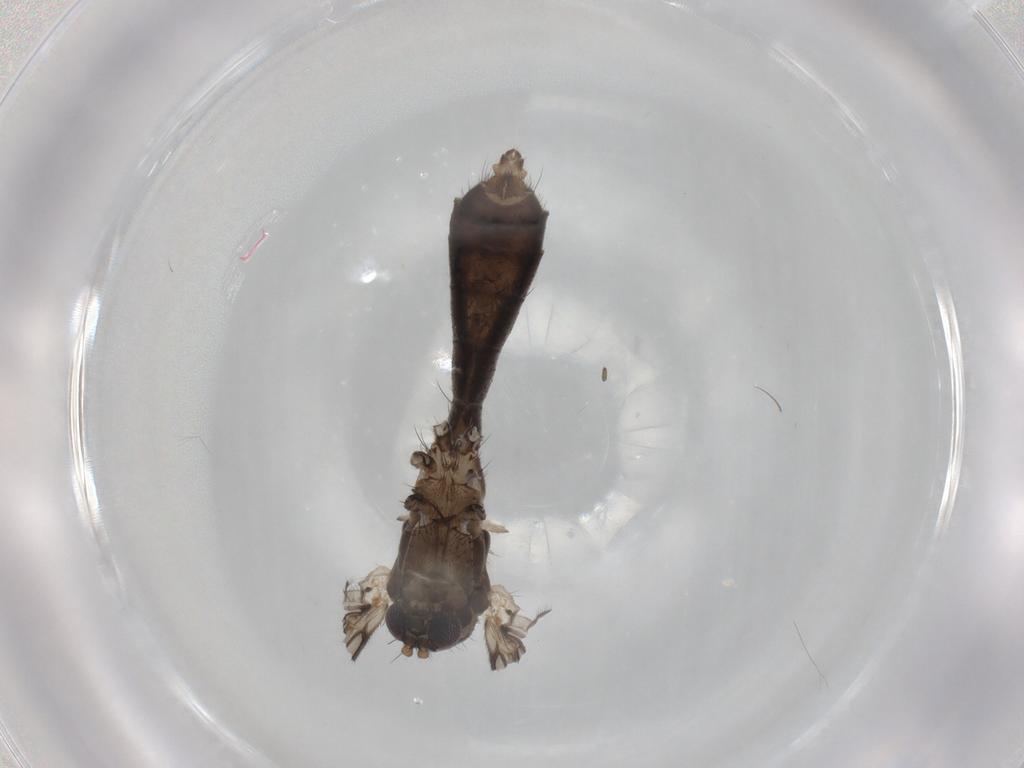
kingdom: Animalia
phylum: Arthropoda
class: Insecta
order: Diptera
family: Mycetophilidae
